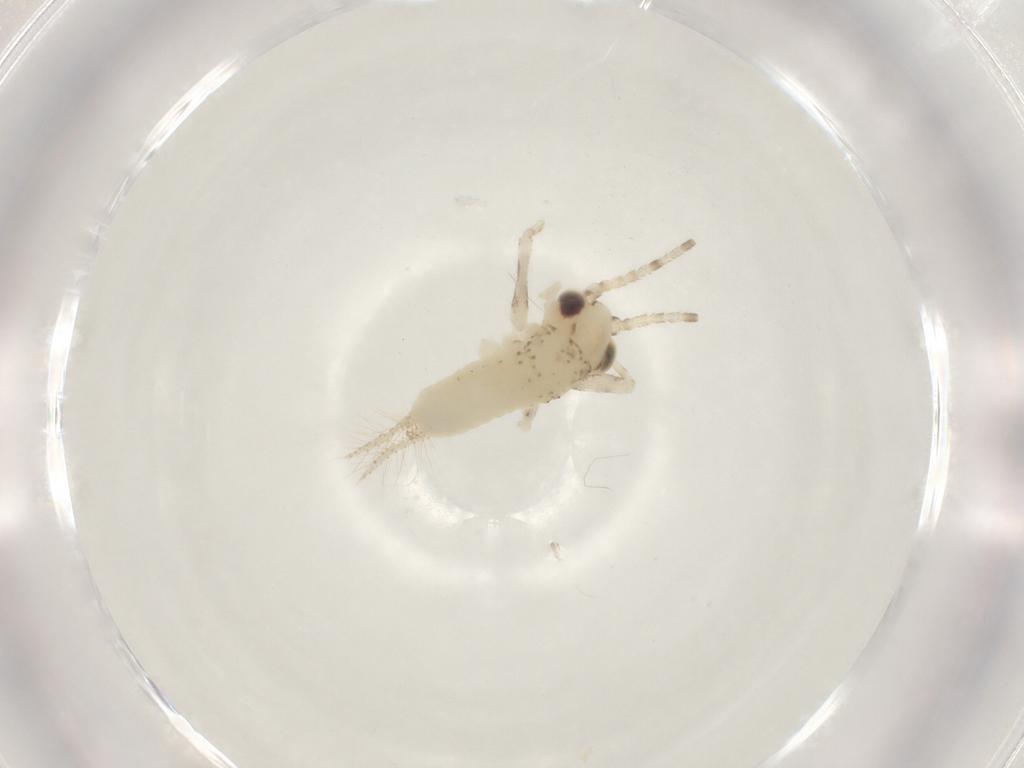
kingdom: Animalia
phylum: Arthropoda
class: Insecta
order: Orthoptera
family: Trigonidiidae
